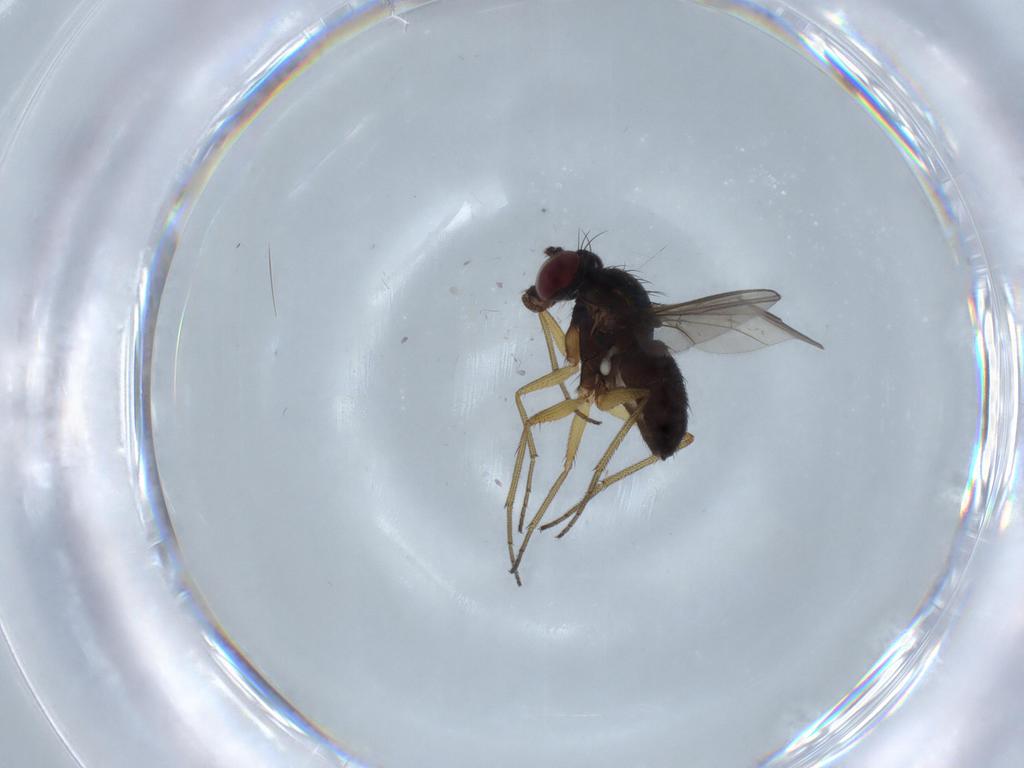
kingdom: Animalia
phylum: Arthropoda
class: Insecta
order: Diptera
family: Dolichopodidae
